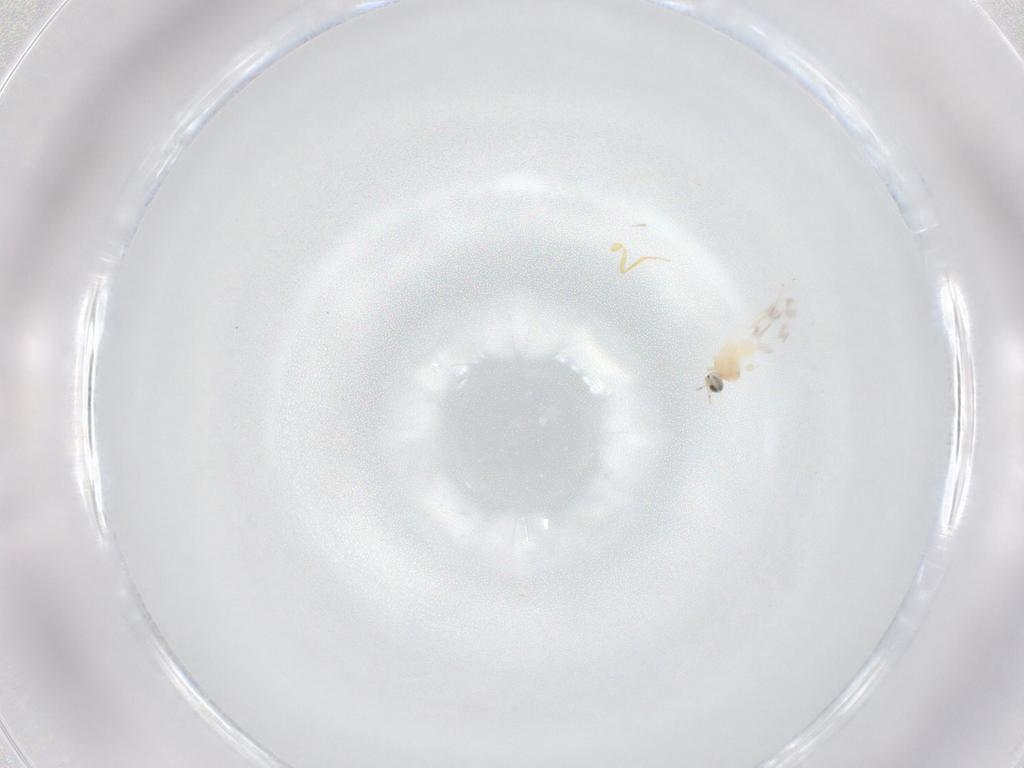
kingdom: Animalia
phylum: Arthropoda
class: Insecta
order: Diptera
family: Cecidomyiidae
